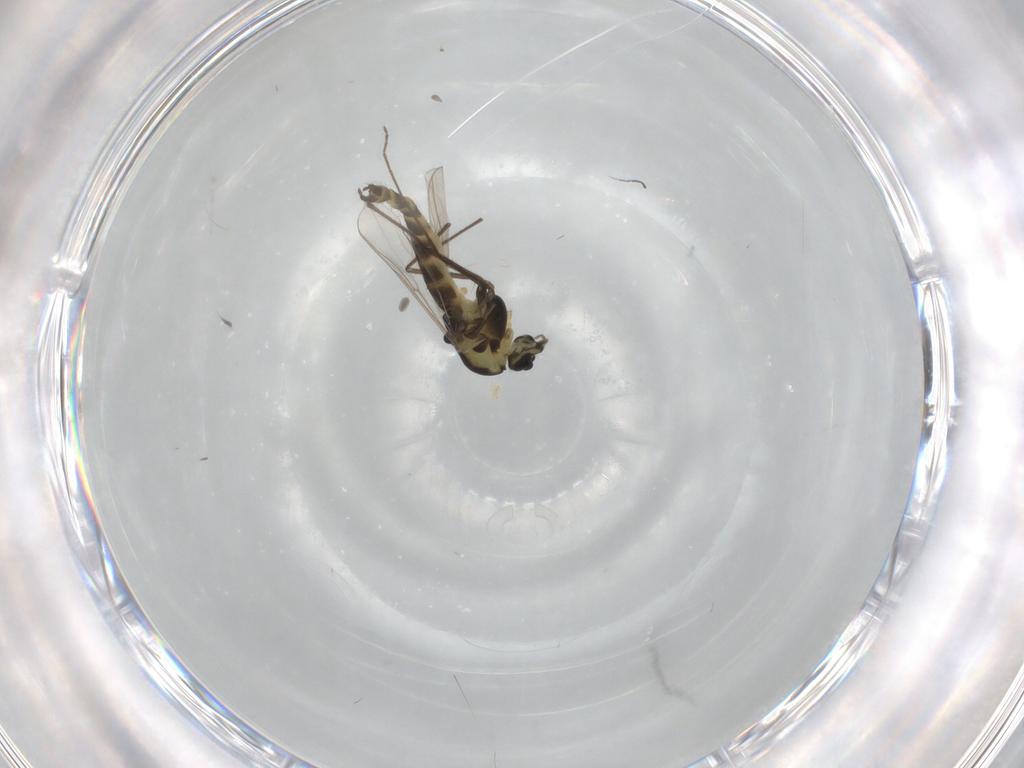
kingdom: Animalia
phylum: Arthropoda
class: Insecta
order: Diptera
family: Chironomidae
